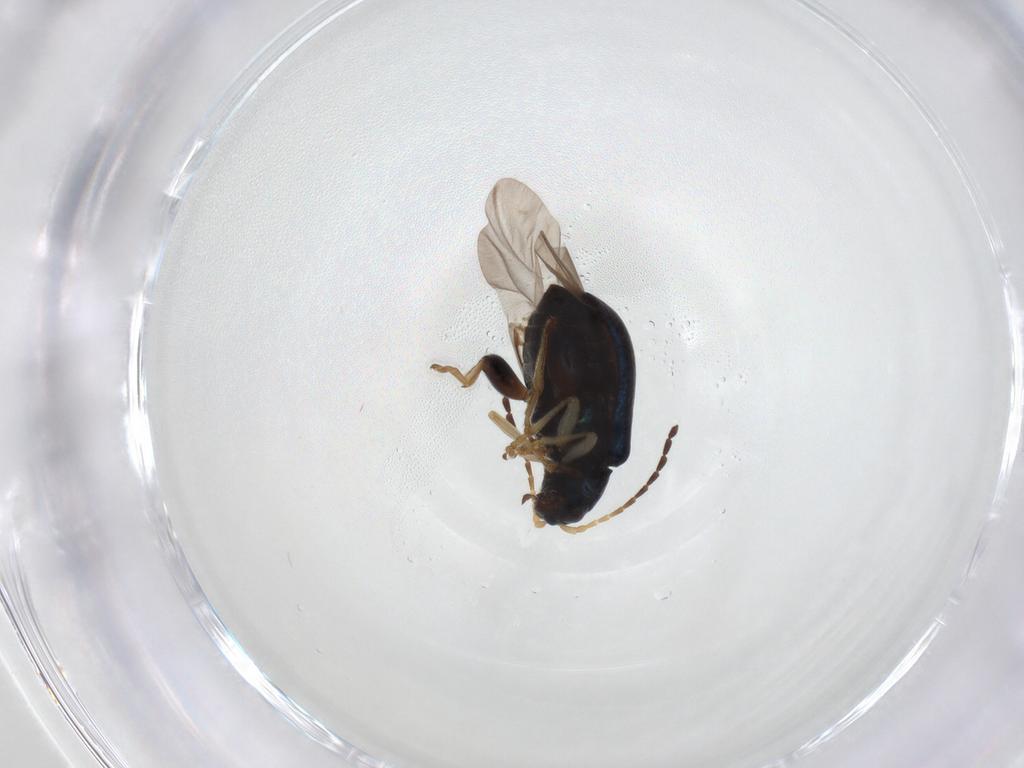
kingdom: Animalia
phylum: Arthropoda
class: Insecta
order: Coleoptera
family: Chrysomelidae
